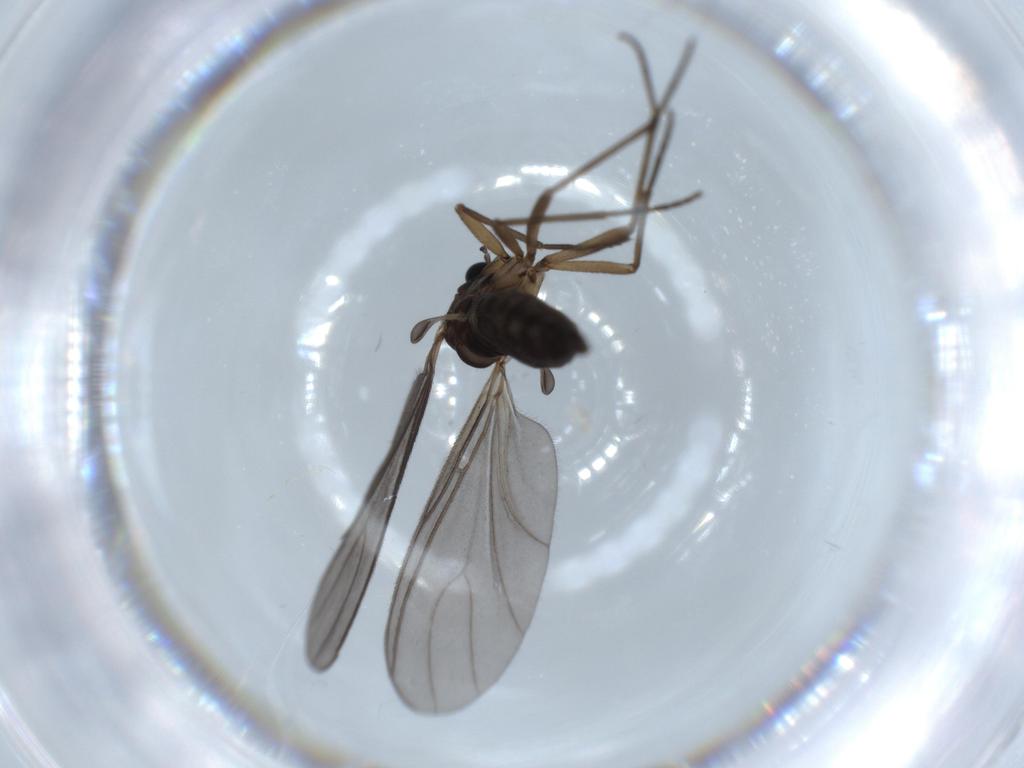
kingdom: Animalia
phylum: Arthropoda
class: Insecta
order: Diptera
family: Sciaridae
